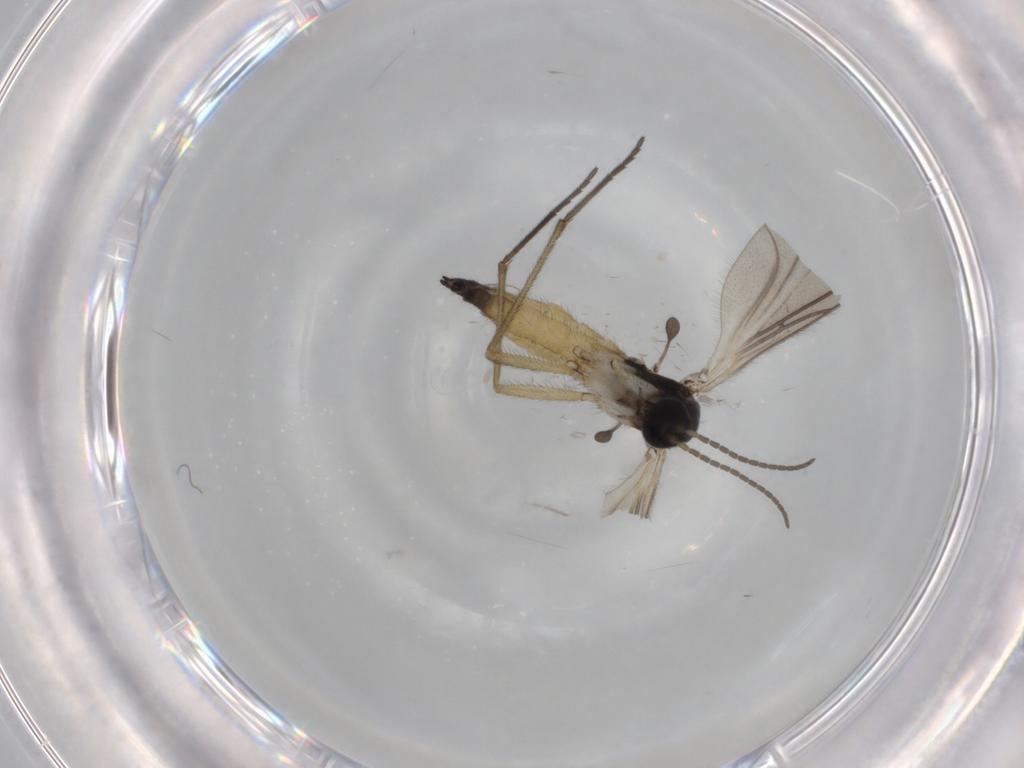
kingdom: Animalia
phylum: Arthropoda
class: Insecta
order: Diptera
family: Sciaridae
